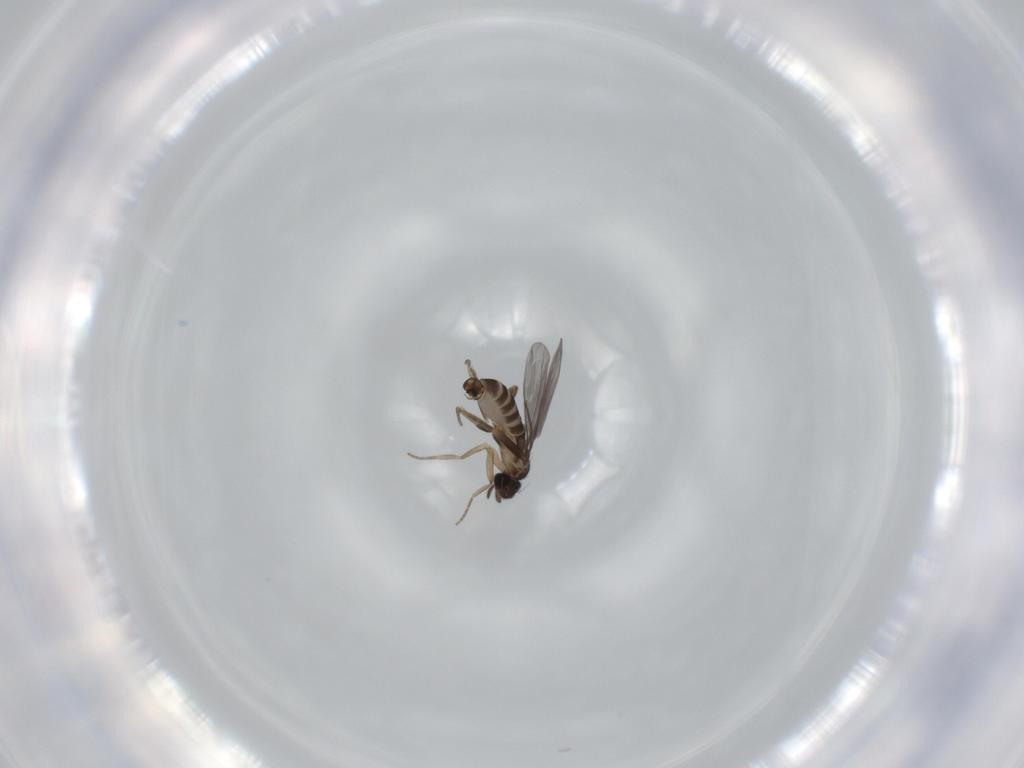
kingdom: Animalia
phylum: Arthropoda
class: Insecta
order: Diptera
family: Sciaridae
